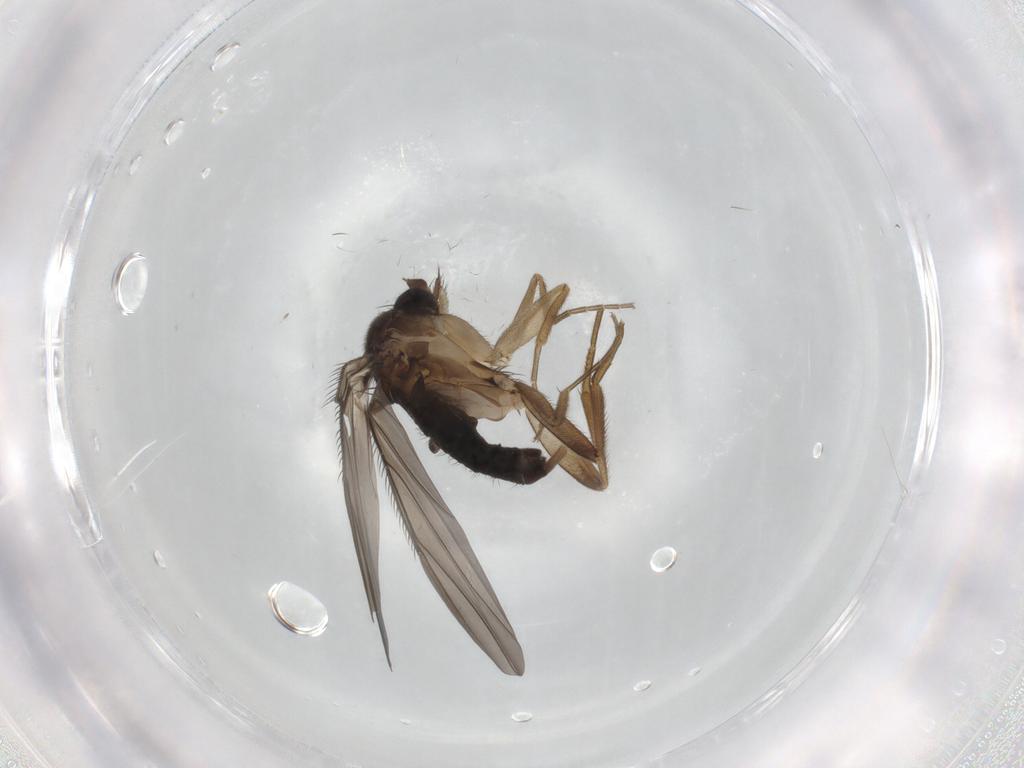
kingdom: Animalia
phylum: Arthropoda
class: Insecta
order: Diptera
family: Phoridae
